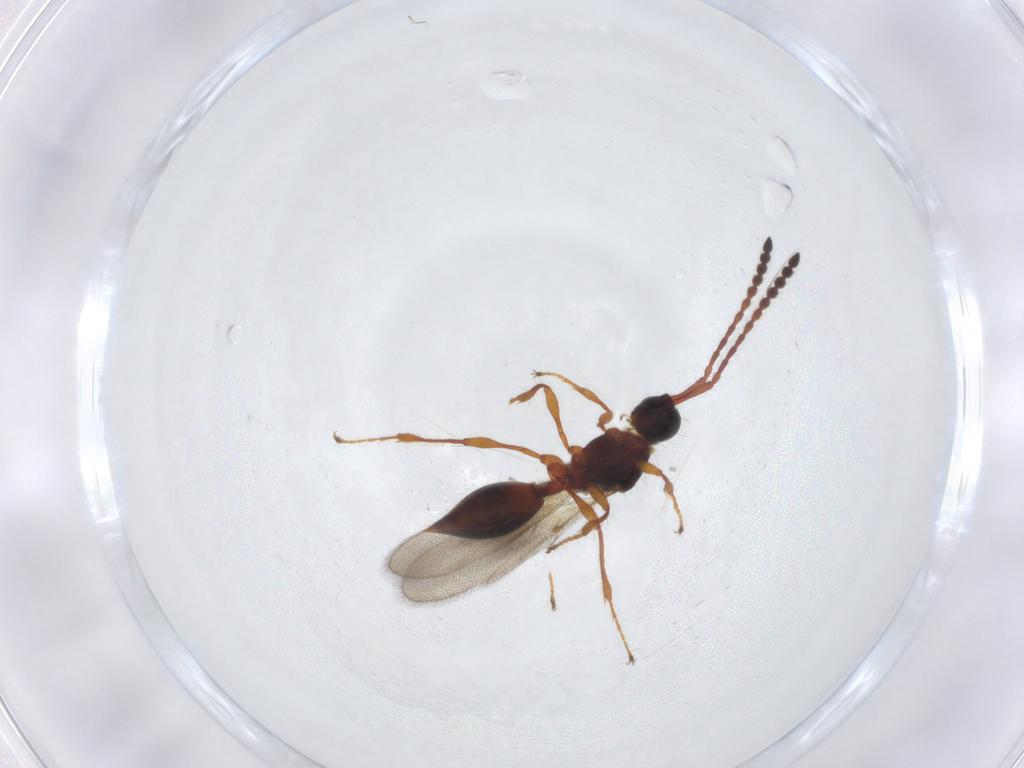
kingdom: Animalia
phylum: Arthropoda
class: Insecta
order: Hymenoptera
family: Diapriidae
